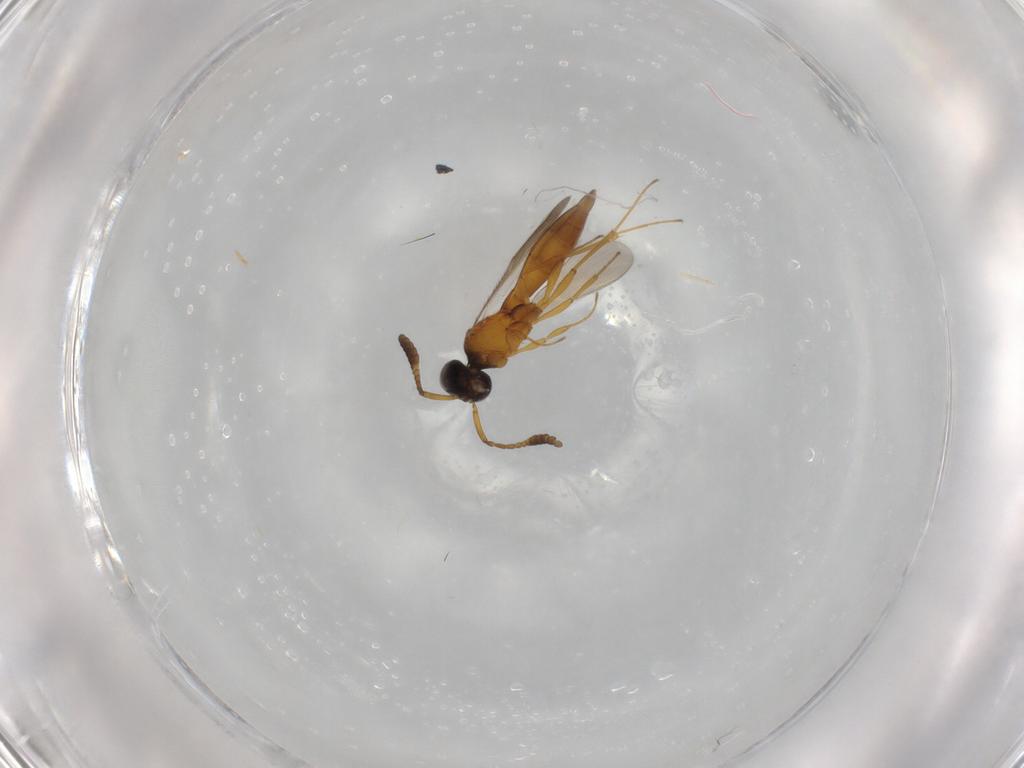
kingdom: Animalia
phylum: Arthropoda
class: Insecta
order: Hymenoptera
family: Scelionidae
